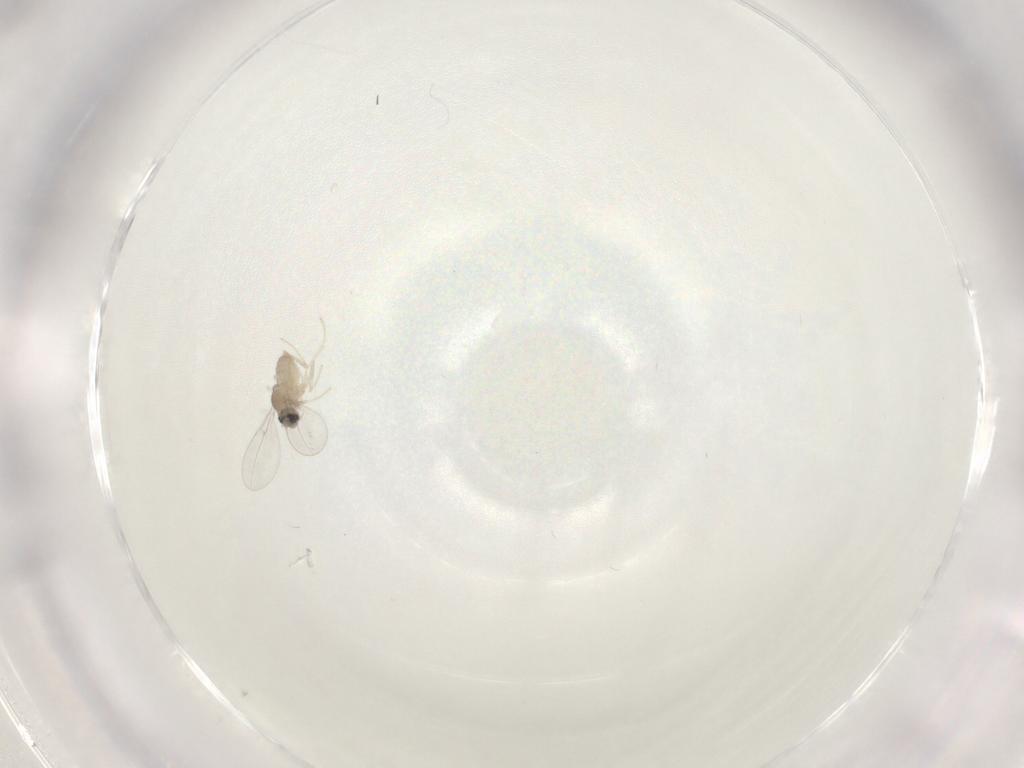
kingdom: Animalia
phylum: Arthropoda
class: Insecta
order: Diptera
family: Cecidomyiidae
